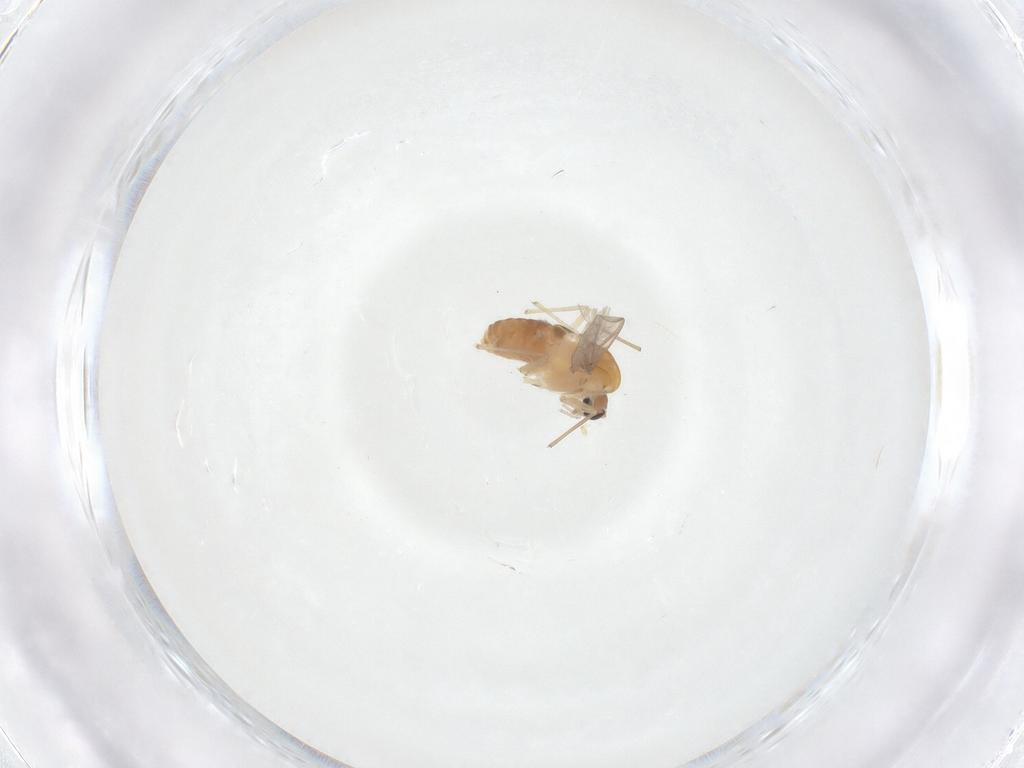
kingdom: Animalia
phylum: Arthropoda
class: Insecta
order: Diptera
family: Chironomidae
